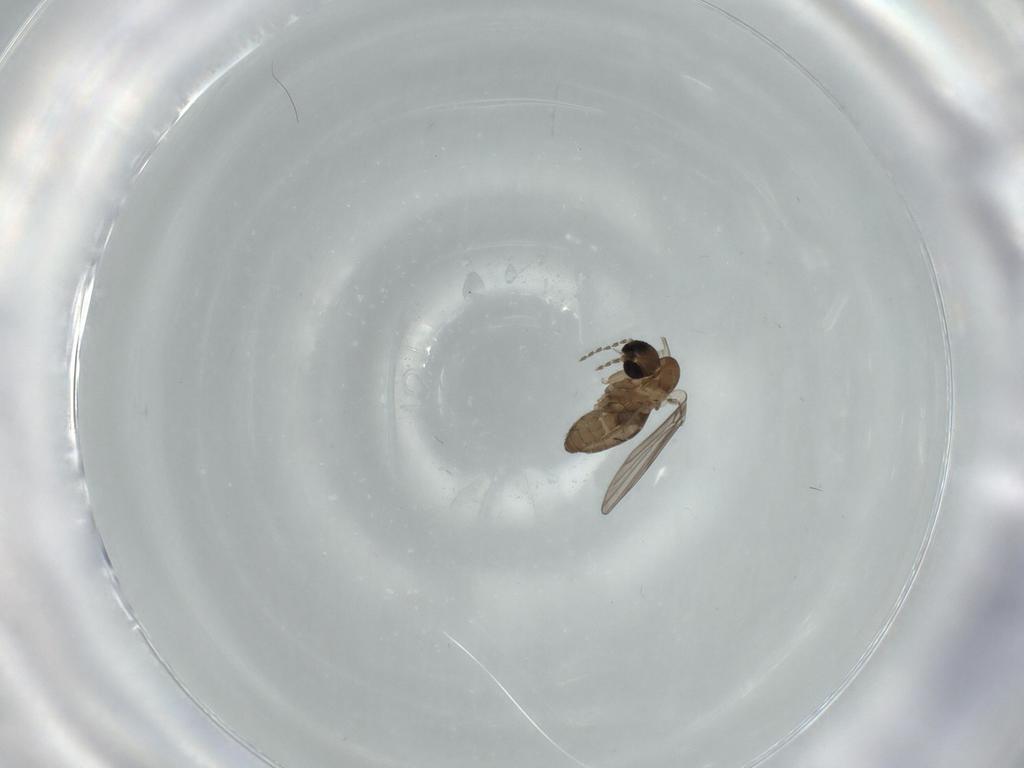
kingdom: Animalia
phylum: Arthropoda
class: Insecta
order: Diptera
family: Psychodidae
